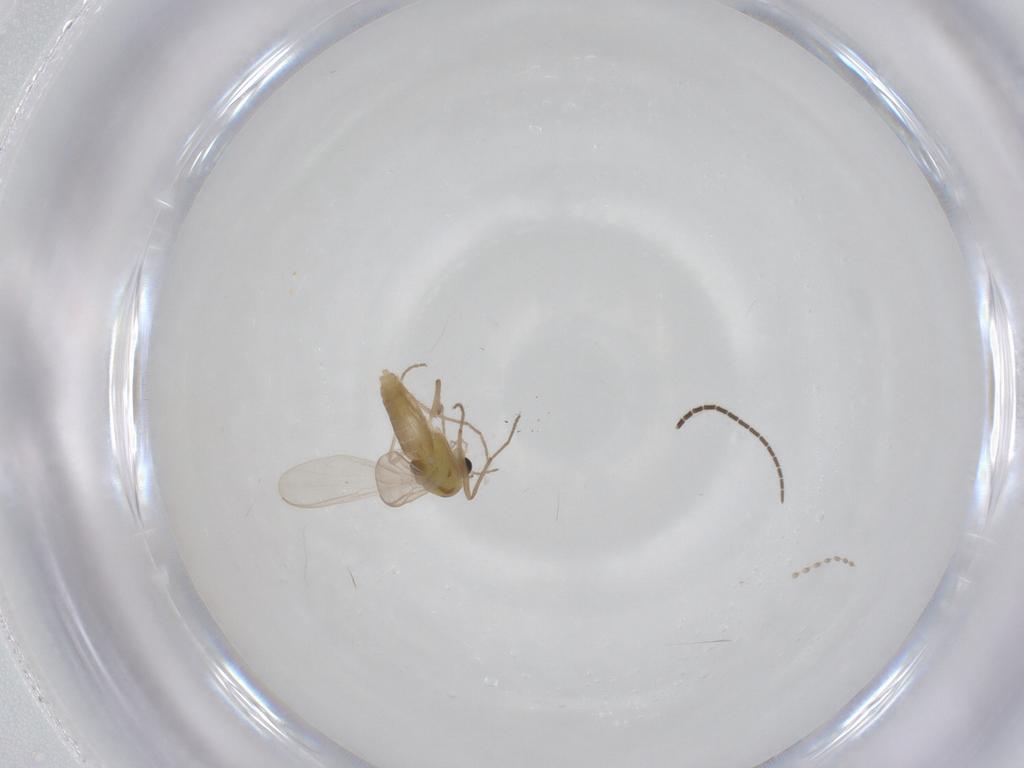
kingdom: Animalia
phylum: Arthropoda
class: Insecta
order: Diptera
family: Chironomidae
